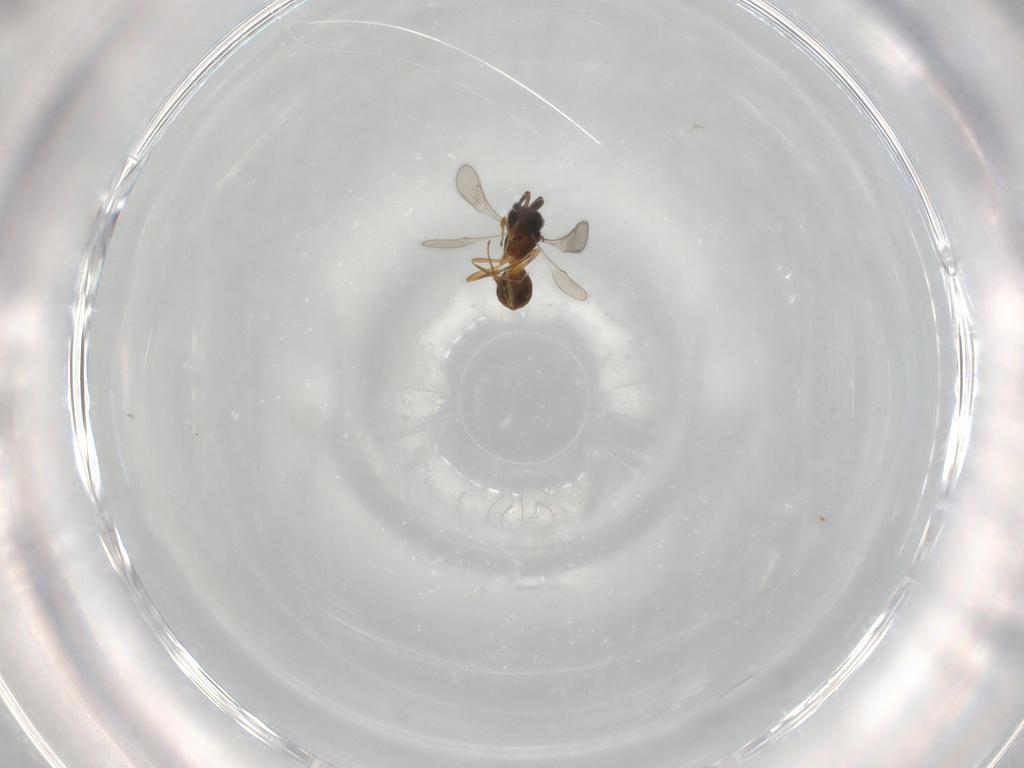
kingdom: Animalia
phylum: Arthropoda
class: Insecta
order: Hymenoptera
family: Scelionidae
